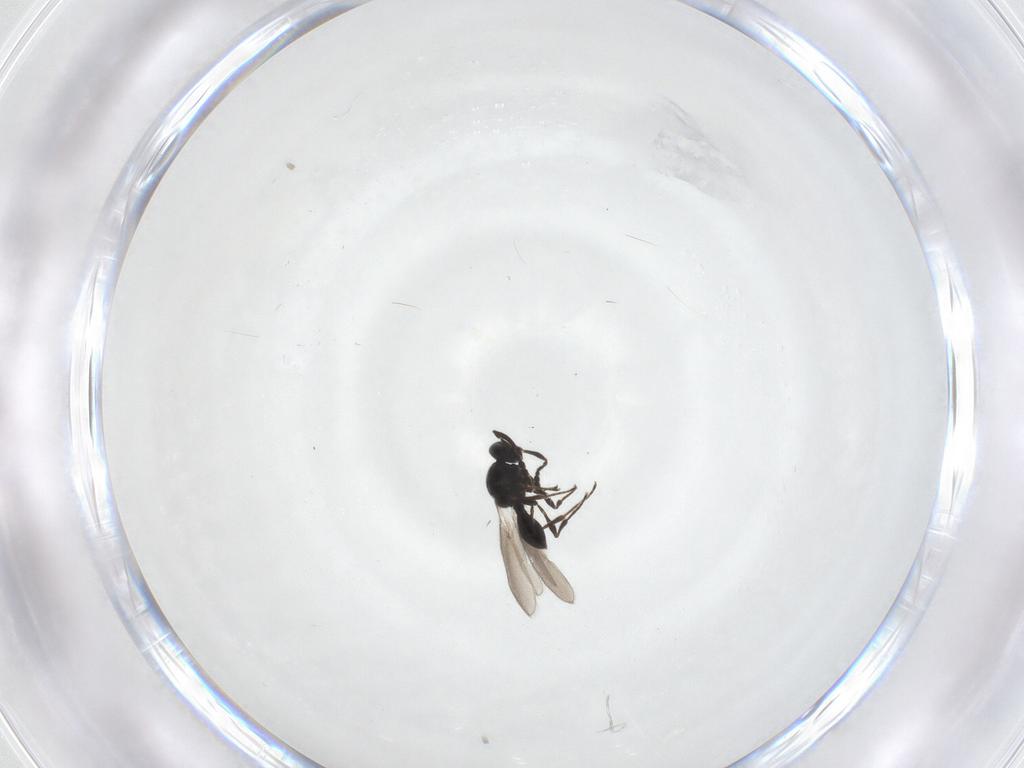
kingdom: Animalia
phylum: Arthropoda
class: Insecta
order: Hymenoptera
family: Platygastridae
